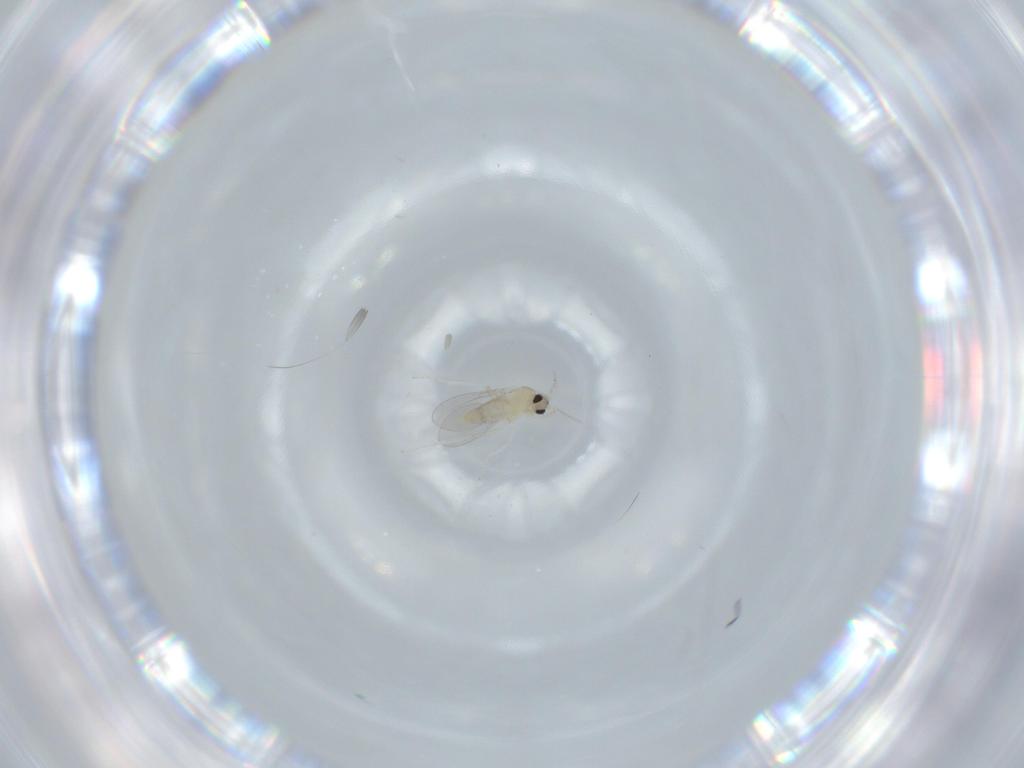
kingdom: Animalia
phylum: Arthropoda
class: Insecta
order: Diptera
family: Cecidomyiidae
